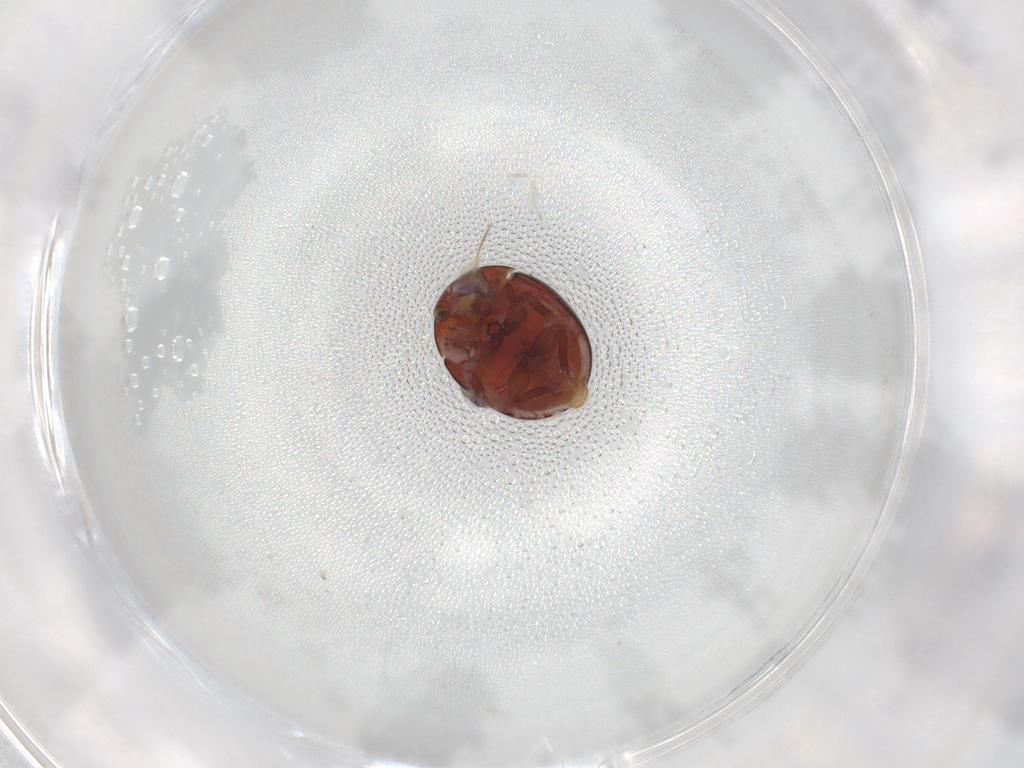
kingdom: Animalia
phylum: Arthropoda
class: Insecta
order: Coleoptera
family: Hydrophilidae
